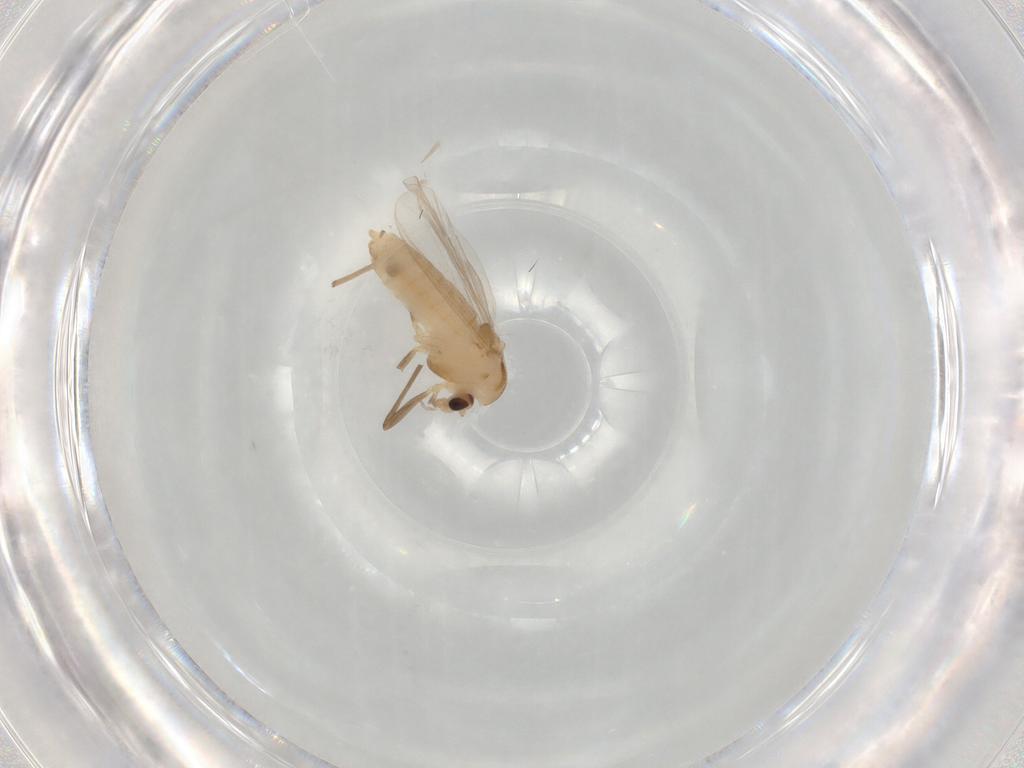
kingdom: Animalia
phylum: Arthropoda
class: Insecta
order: Diptera
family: Chironomidae
